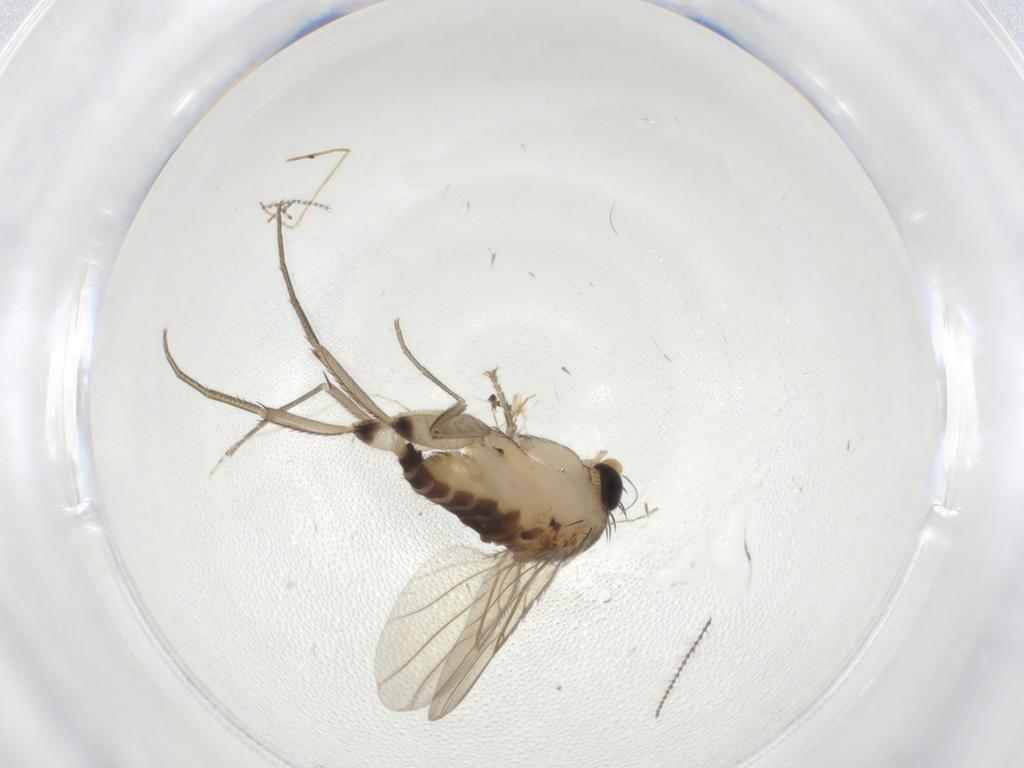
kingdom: Animalia
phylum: Arthropoda
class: Insecta
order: Diptera
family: Cecidomyiidae
